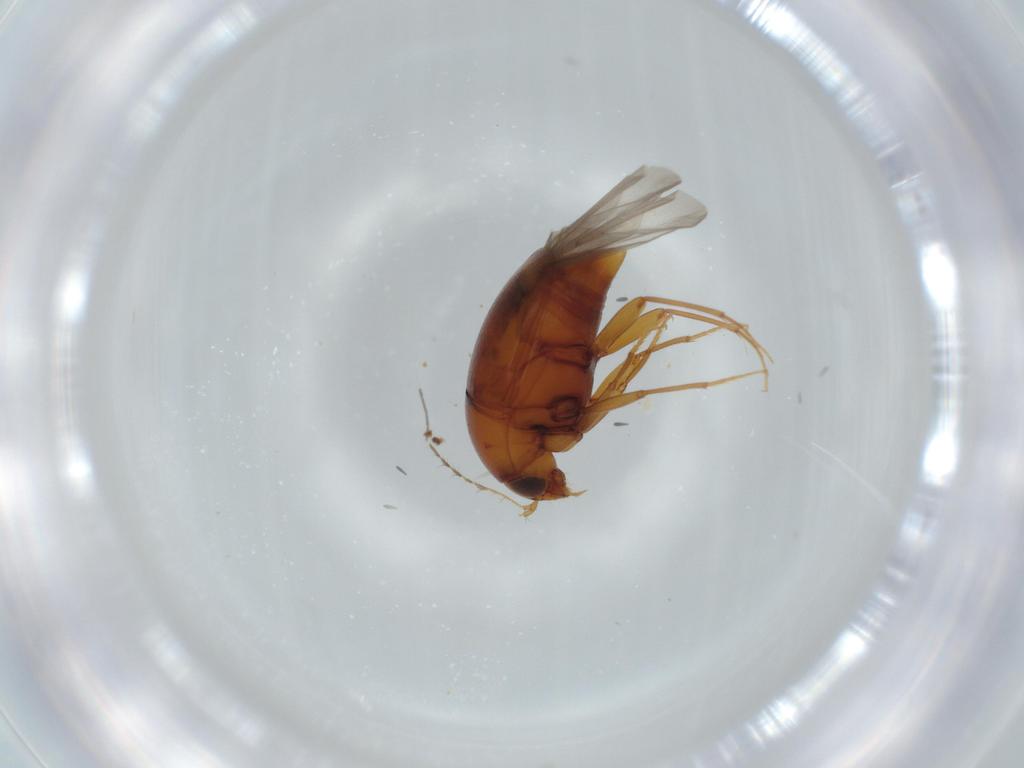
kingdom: Animalia
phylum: Arthropoda
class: Insecta
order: Coleoptera
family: Staphylinidae
